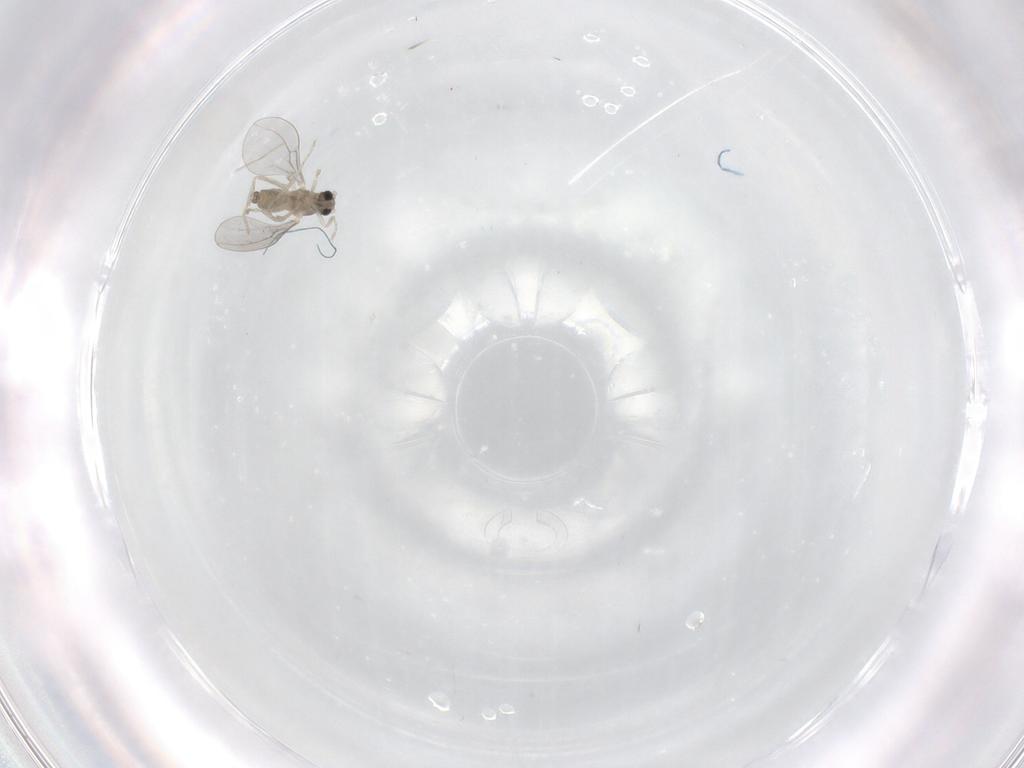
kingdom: Animalia
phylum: Arthropoda
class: Insecta
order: Diptera
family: Cecidomyiidae
